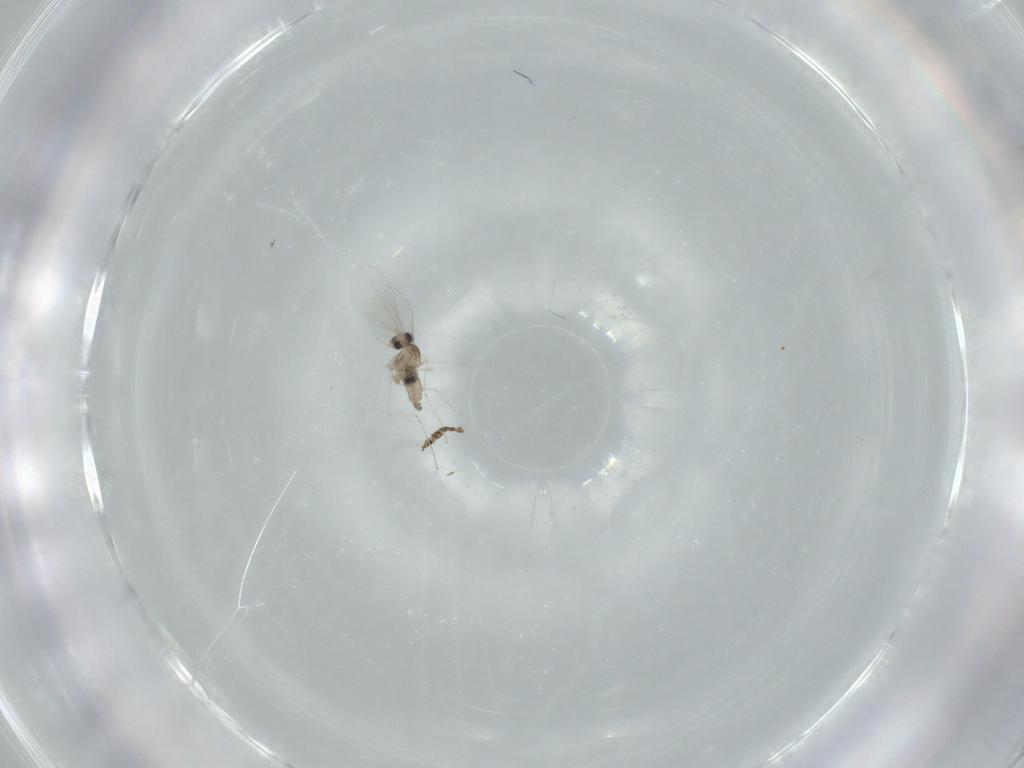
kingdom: Animalia
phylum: Arthropoda
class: Insecta
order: Diptera
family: Cecidomyiidae
